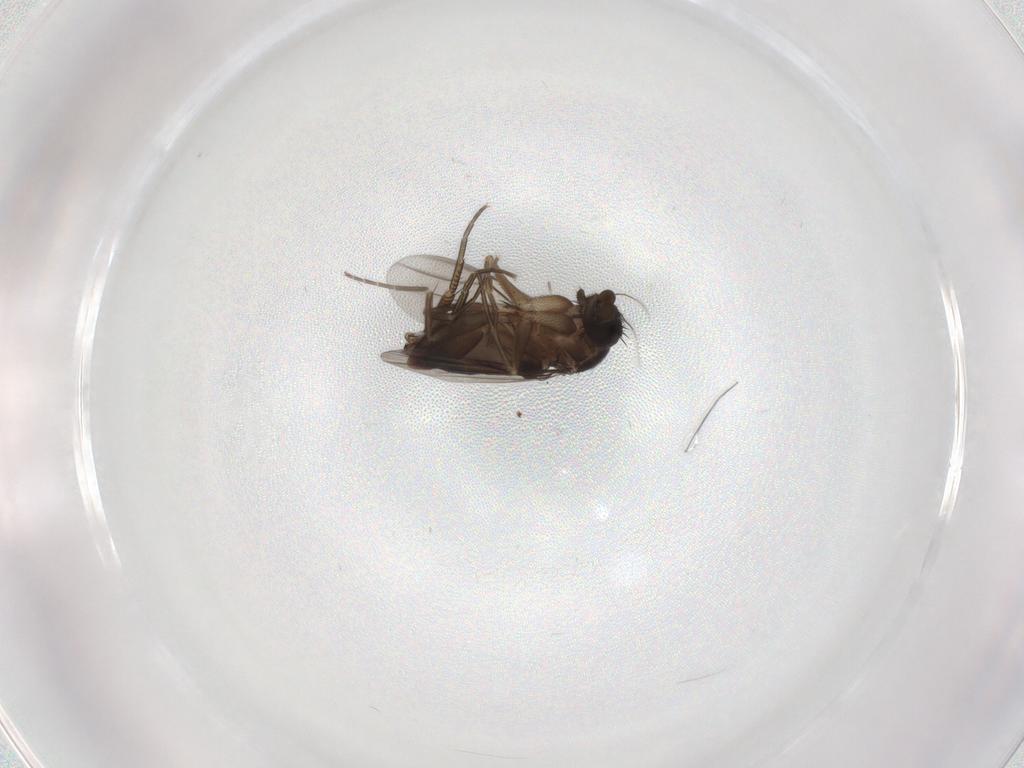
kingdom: Animalia
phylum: Arthropoda
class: Insecta
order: Diptera
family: Phoridae
